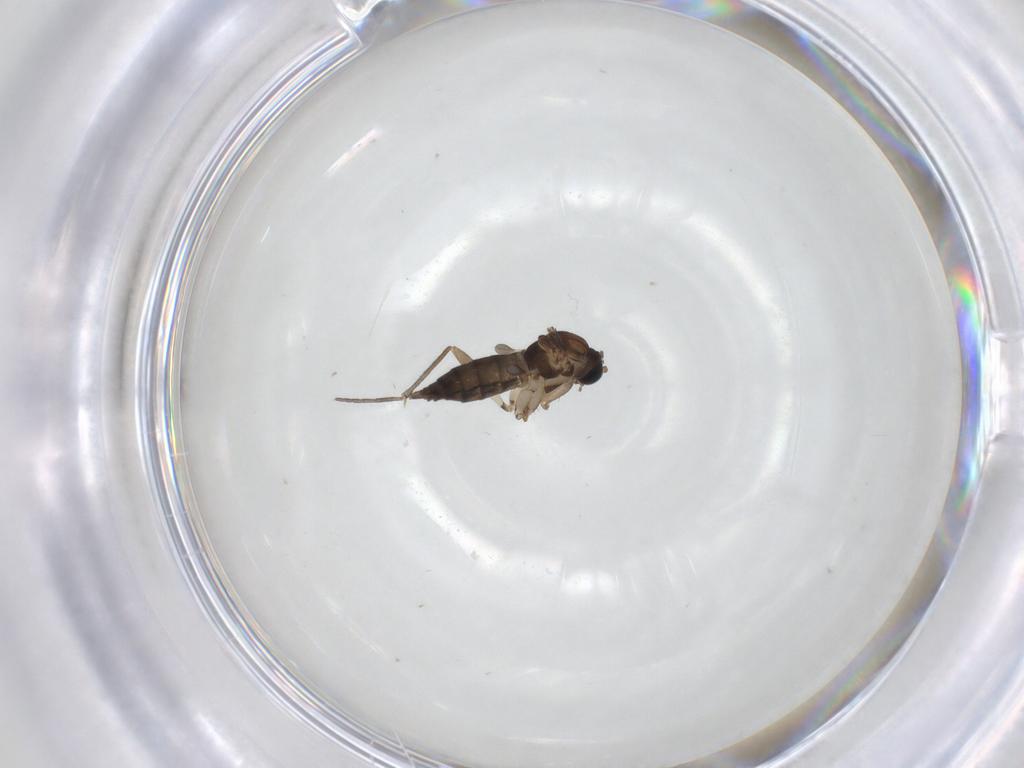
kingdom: Animalia
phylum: Arthropoda
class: Insecta
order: Diptera
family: Sciaridae
